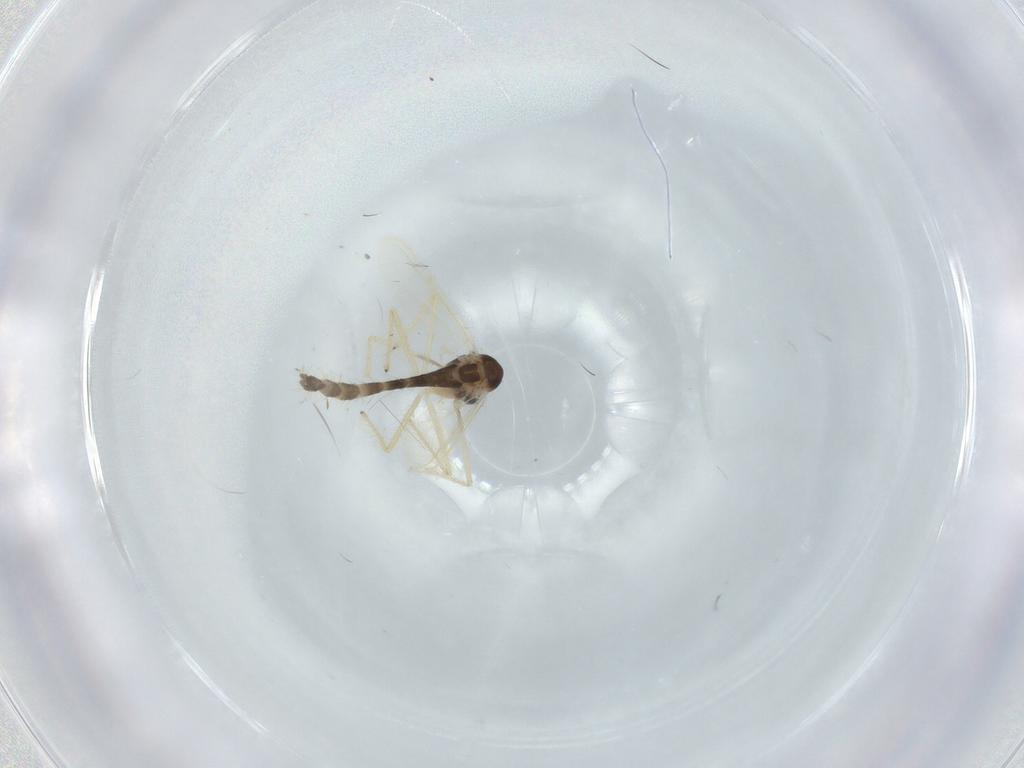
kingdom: Animalia
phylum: Arthropoda
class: Insecta
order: Diptera
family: Chironomidae
